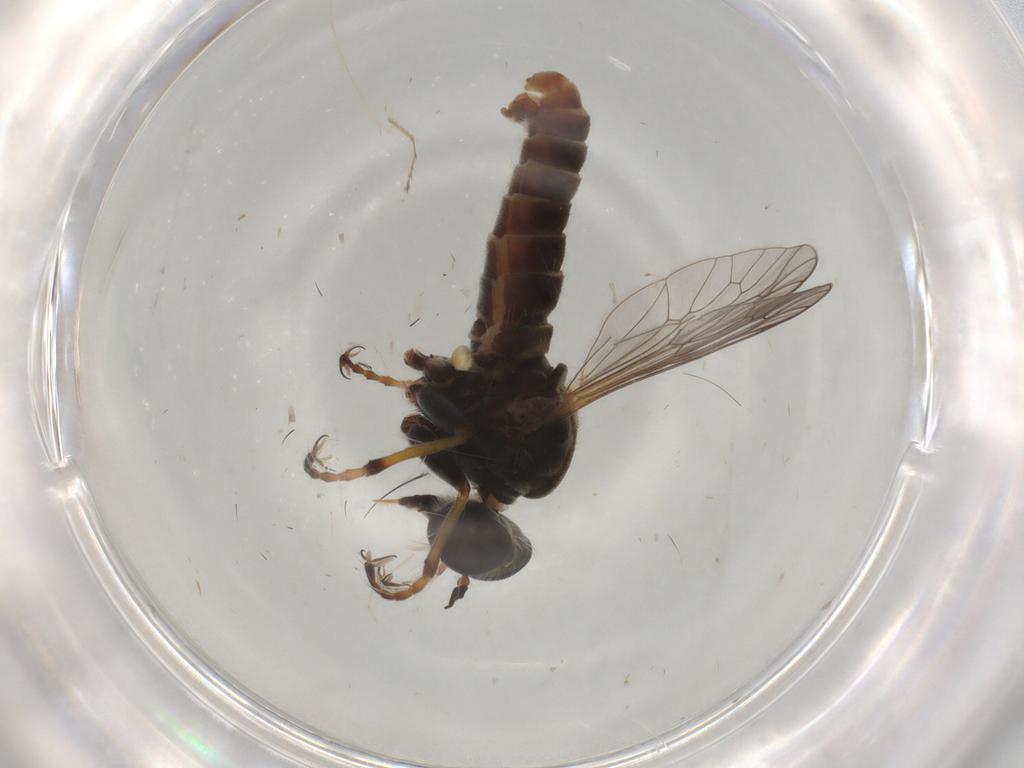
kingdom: Animalia
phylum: Arthropoda
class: Insecta
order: Diptera
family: Asilidae
